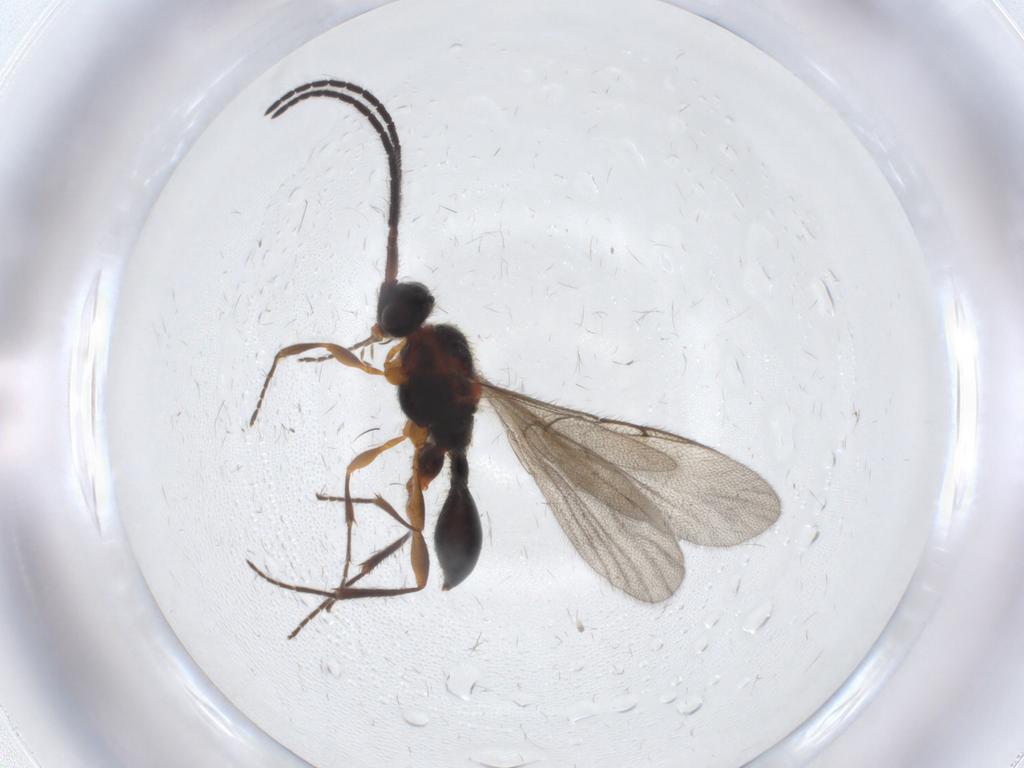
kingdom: Animalia
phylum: Arthropoda
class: Insecta
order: Hymenoptera
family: Diapriidae
